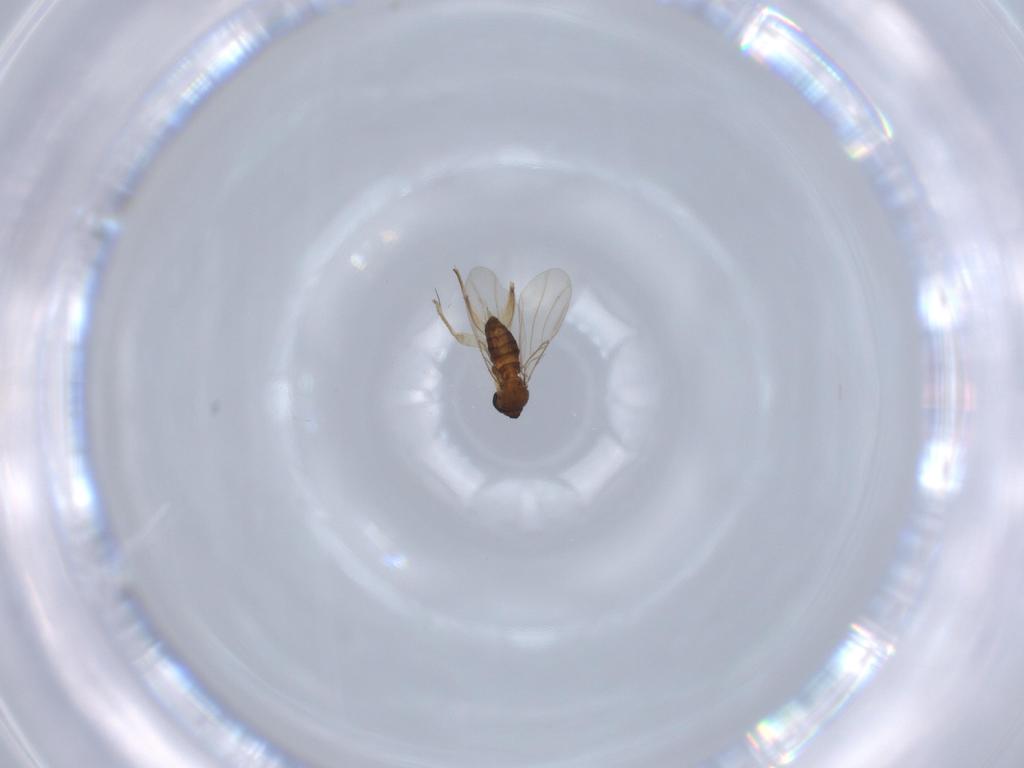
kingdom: Animalia
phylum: Arthropoda
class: Insecta
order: Diptera
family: Phoridae
